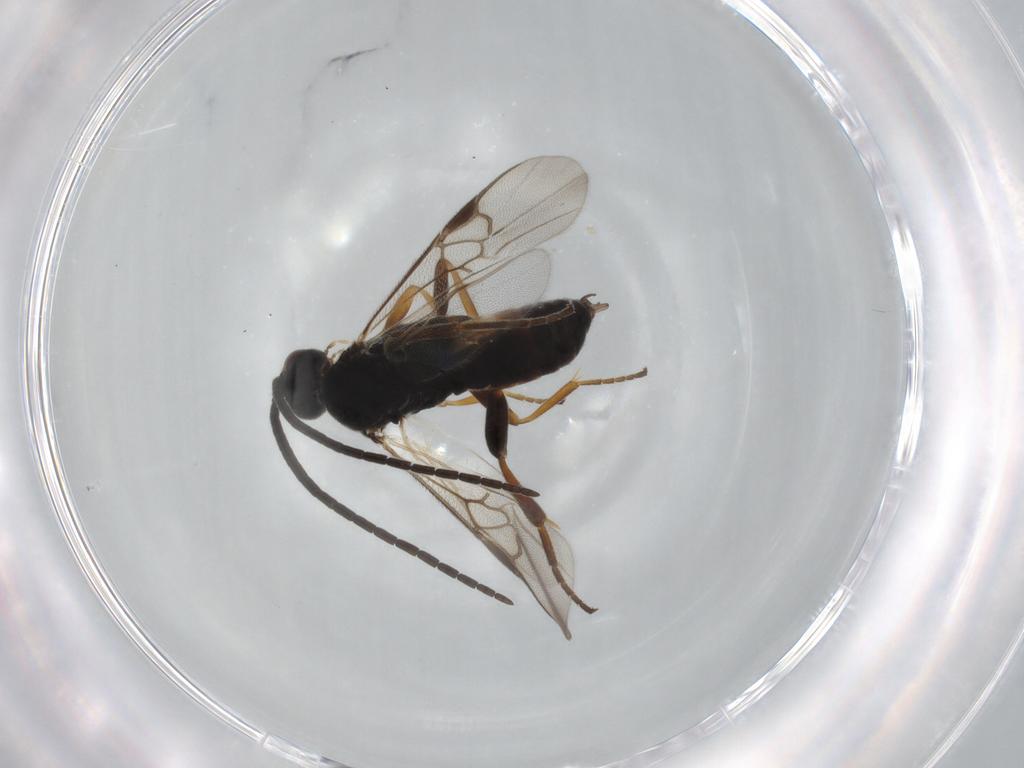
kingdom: Animalia
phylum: Arthropoda
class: Insecta
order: Hymenoptera
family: Braconidae
